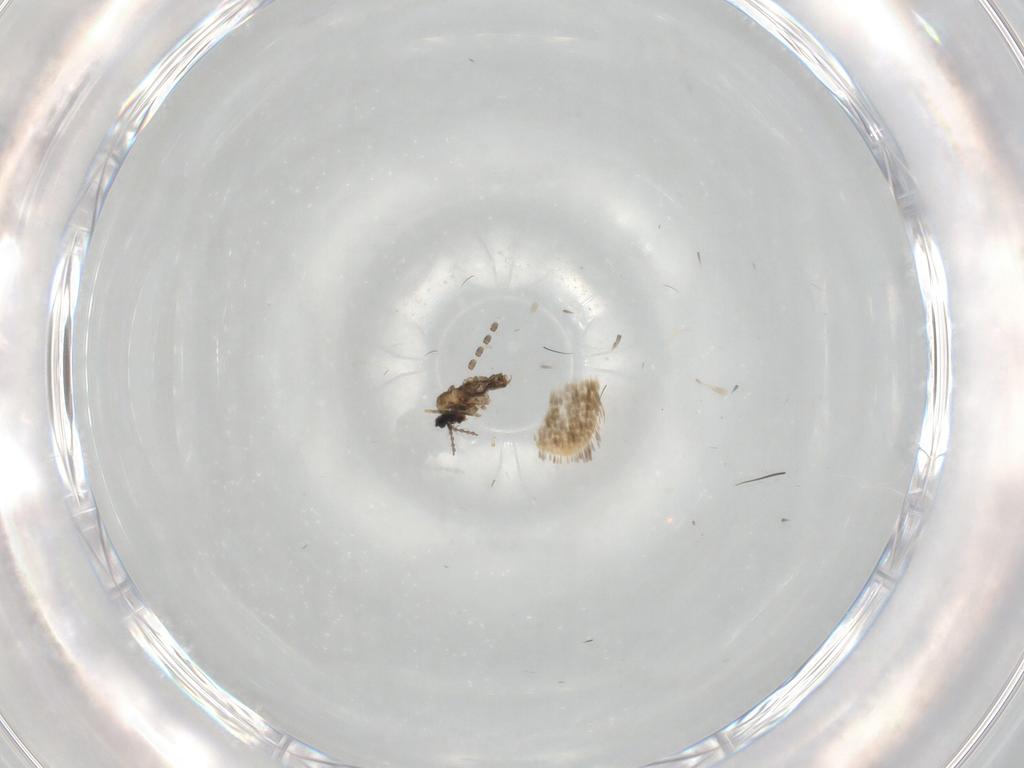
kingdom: Animalia
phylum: Arthropoda
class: Insecta
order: Diptera
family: Cecidomyiidae
